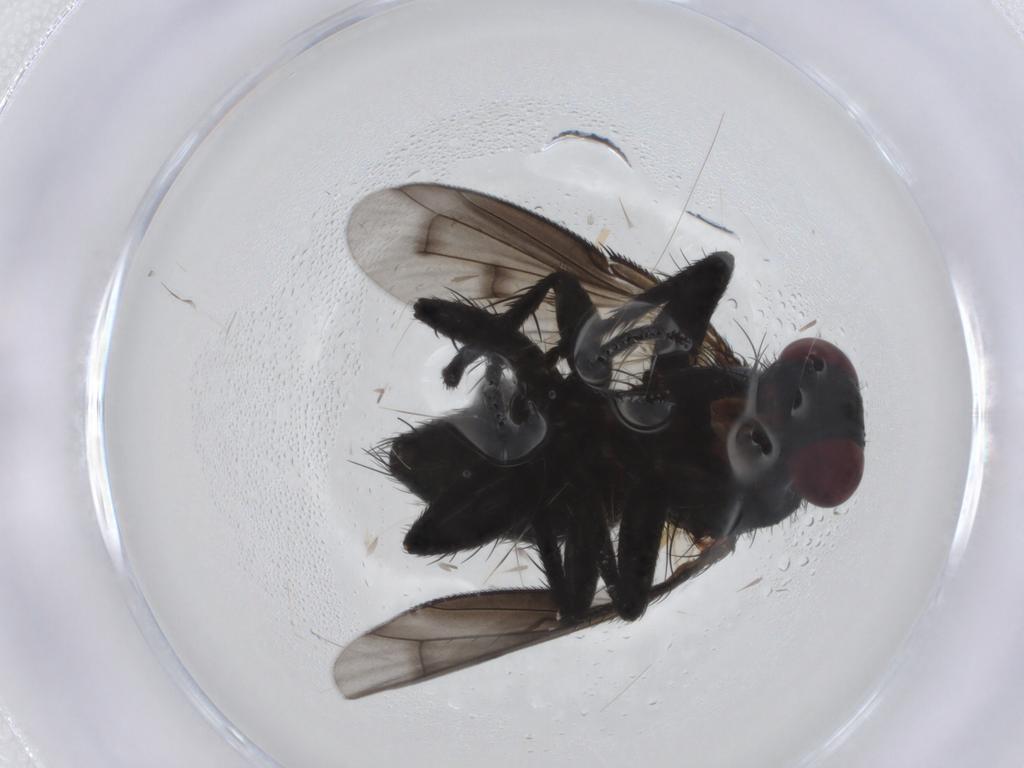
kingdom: Animalia
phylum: Arthropoda
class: Insecta
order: Diptera
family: Tachinidae
